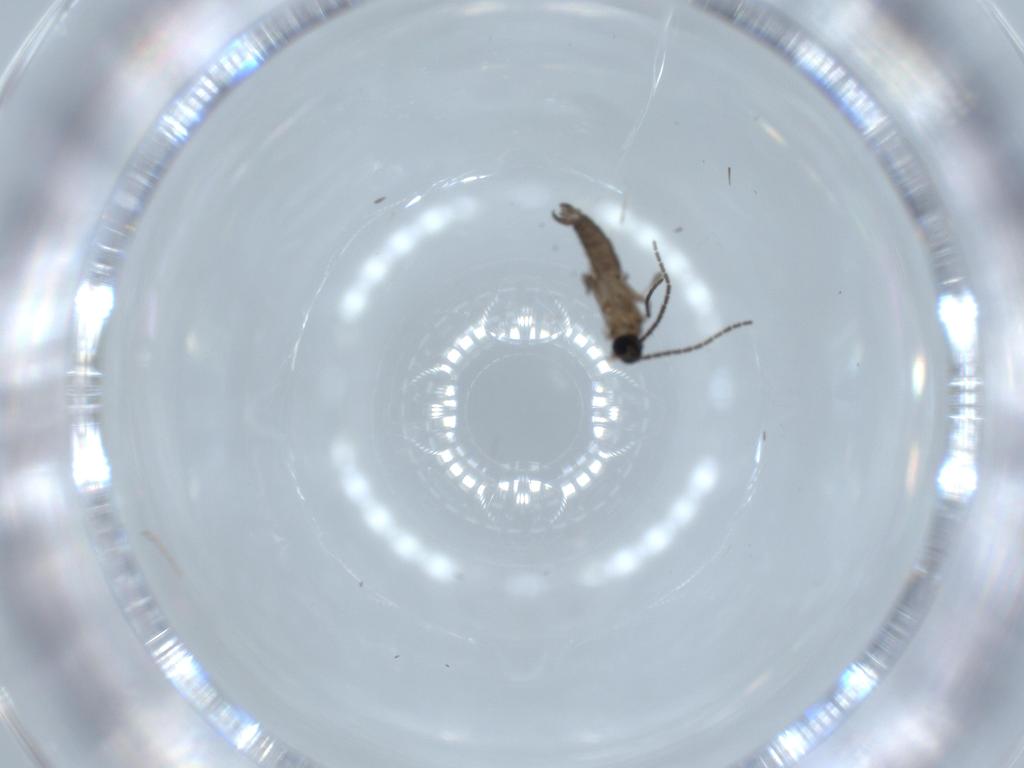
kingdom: Animalia
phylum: Arthropoda
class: Insecta
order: Diptera
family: Sciaridae
